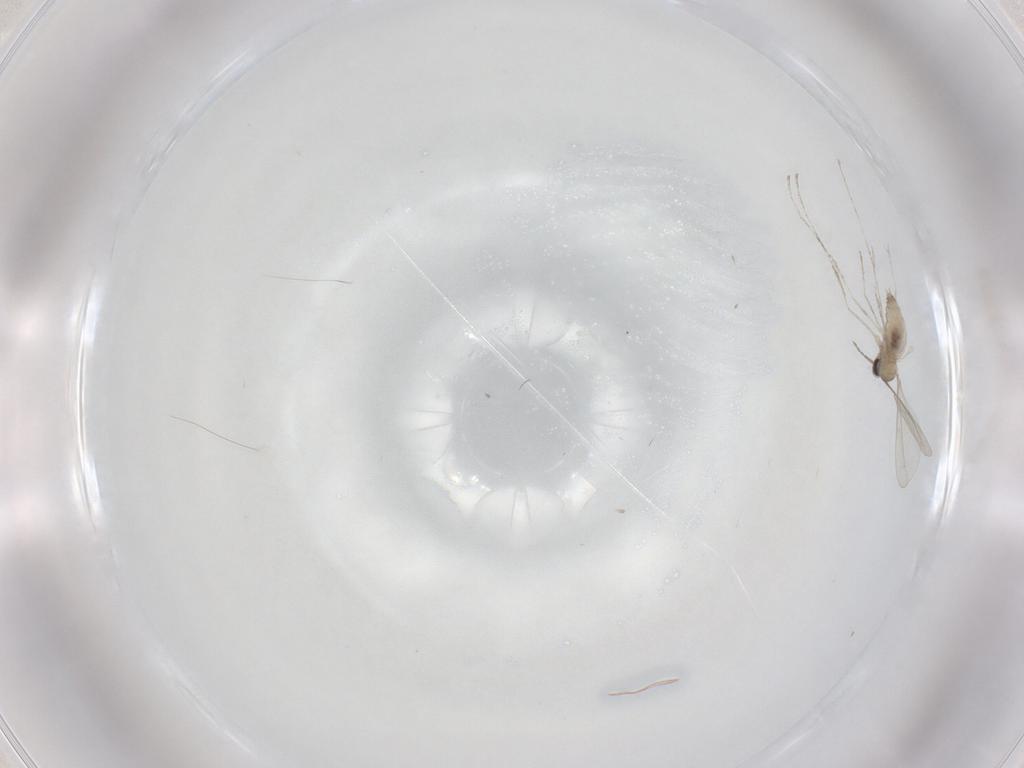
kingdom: Animalia
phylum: Arthropoda
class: Insecta
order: Diptera
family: Cecidomyiidae
